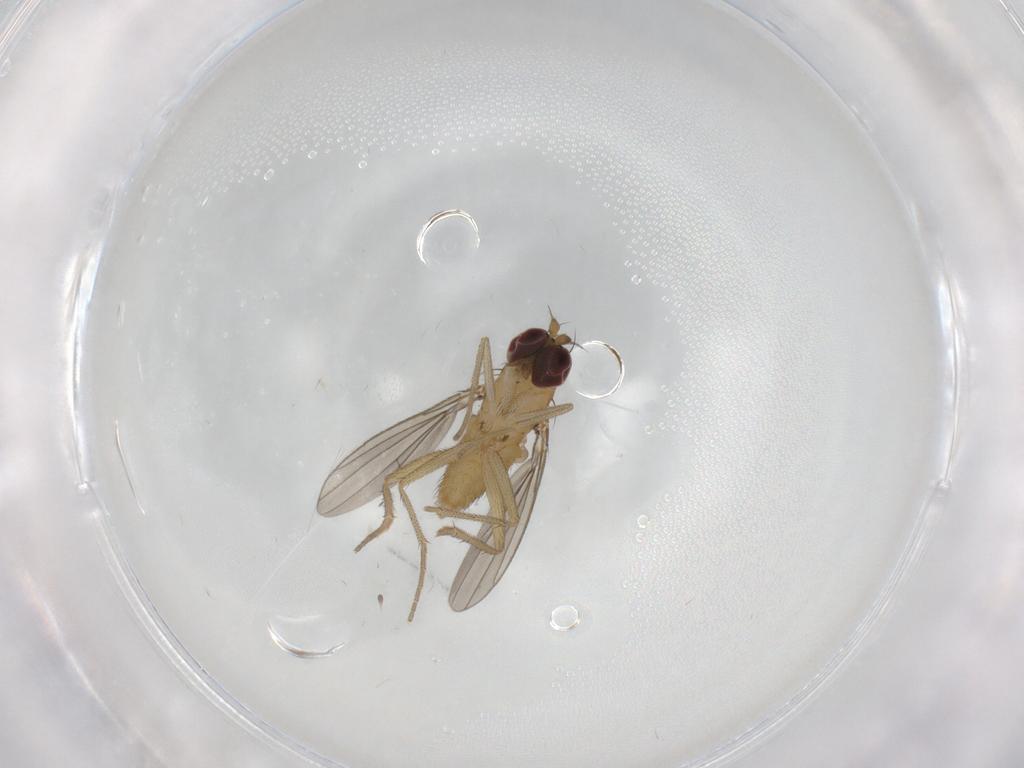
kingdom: Animalia
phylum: Arthropoda
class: Insecta
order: Diptera
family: Dolichopodidae
